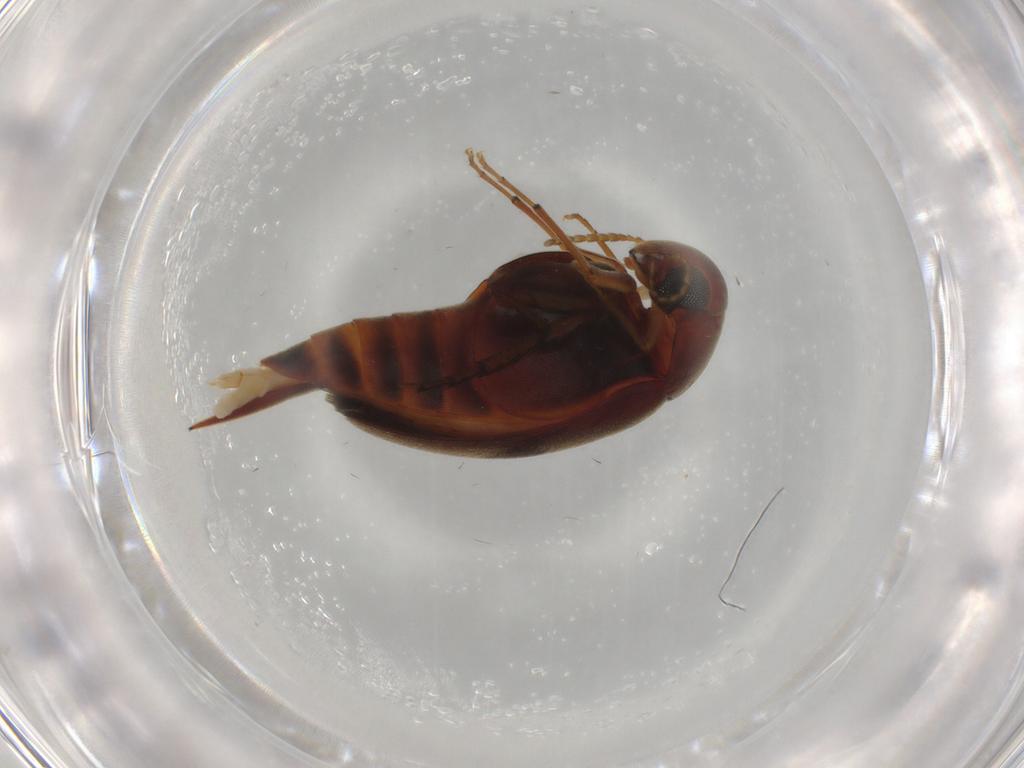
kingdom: Animalia
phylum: Arthropoda
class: Insecta
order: Coleoptera
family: Mordellidae
